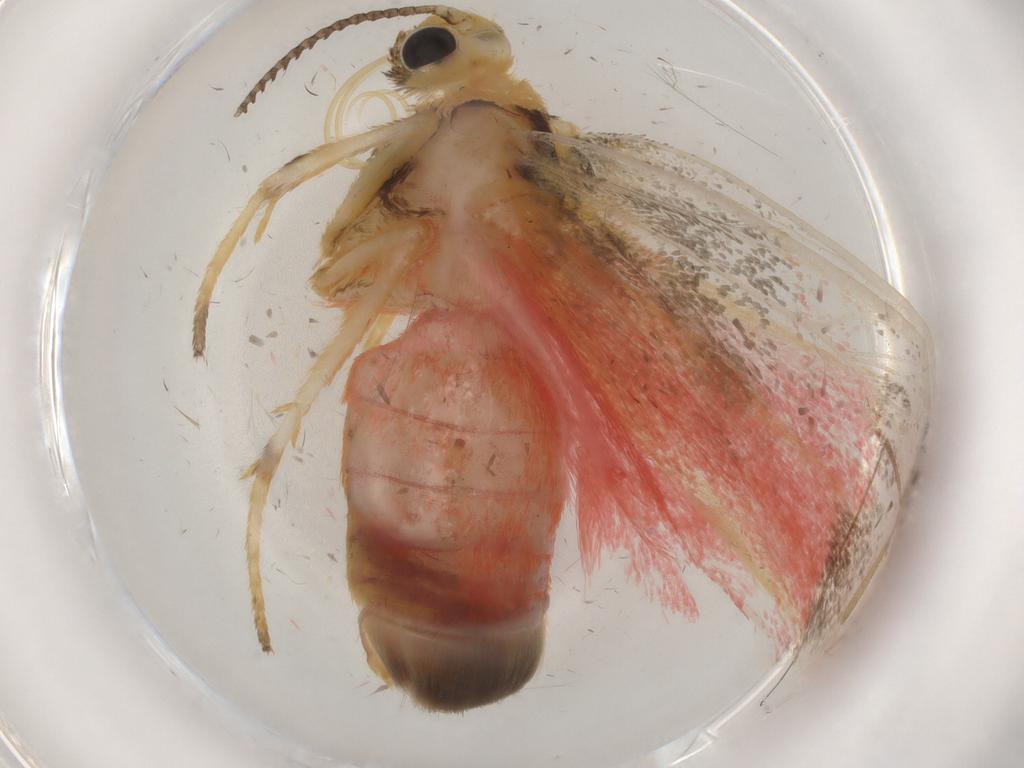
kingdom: Animalia
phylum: Arthropoda
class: Insecta
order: Lepidoptera
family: Erebidae
